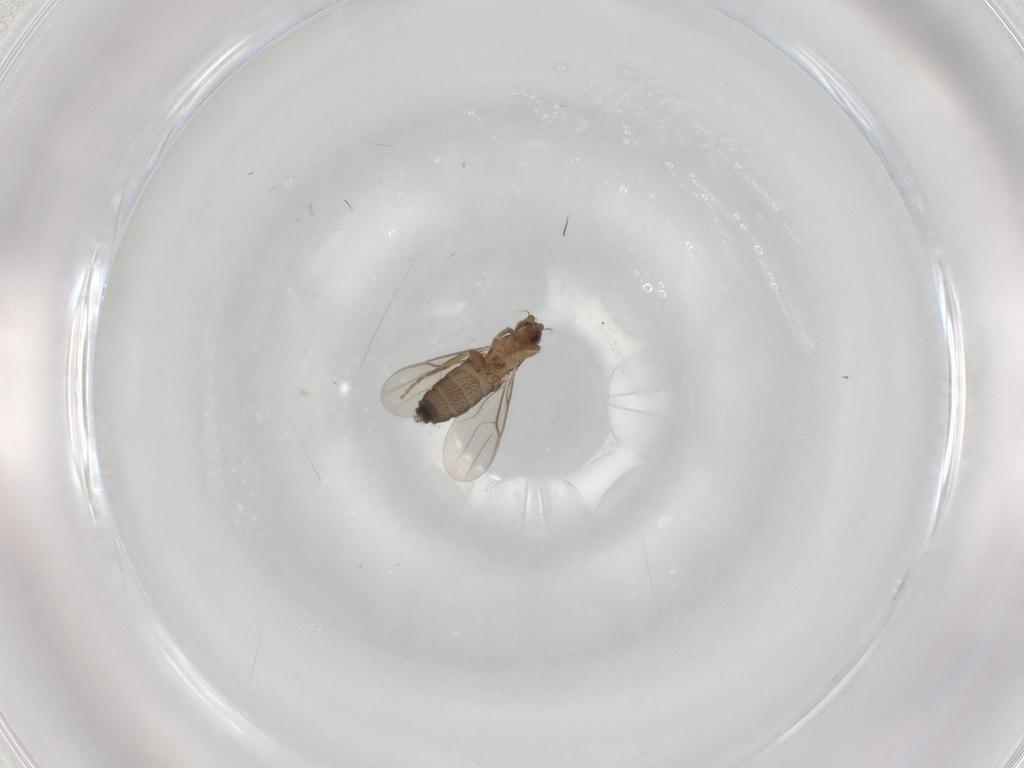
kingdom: Animalia
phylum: Arthropoda
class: Insecta
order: Diptera
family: Phoridae
